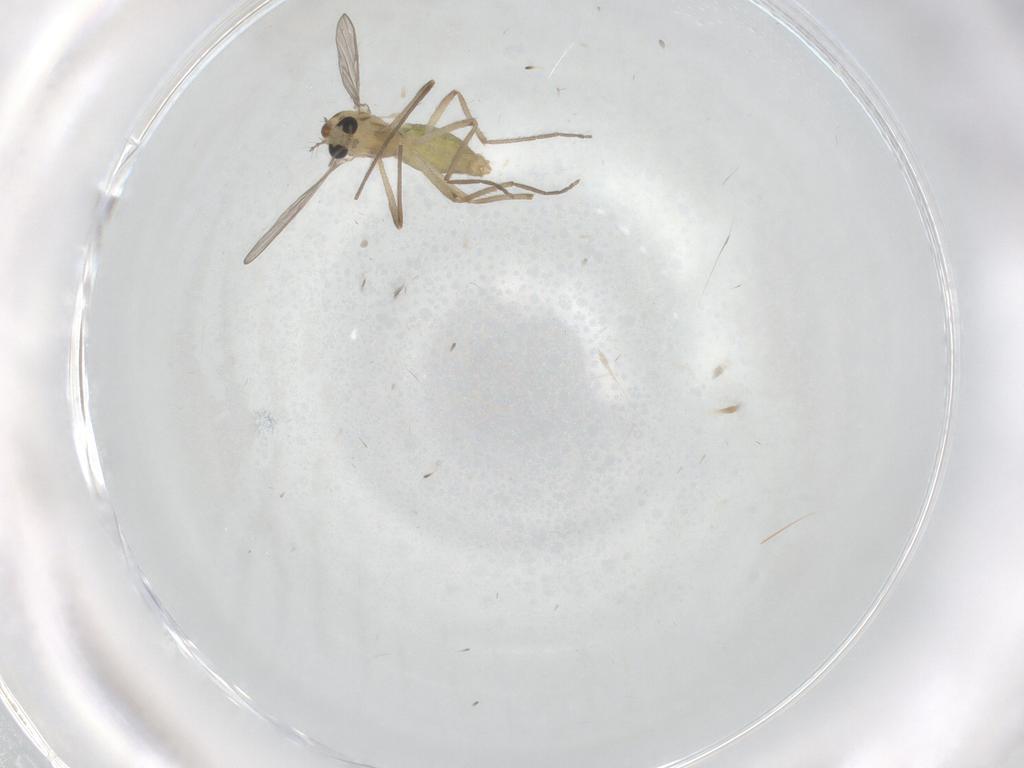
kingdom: Animalia
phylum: Arthropoda
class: Insecta
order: Diptera
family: Chironomidae
